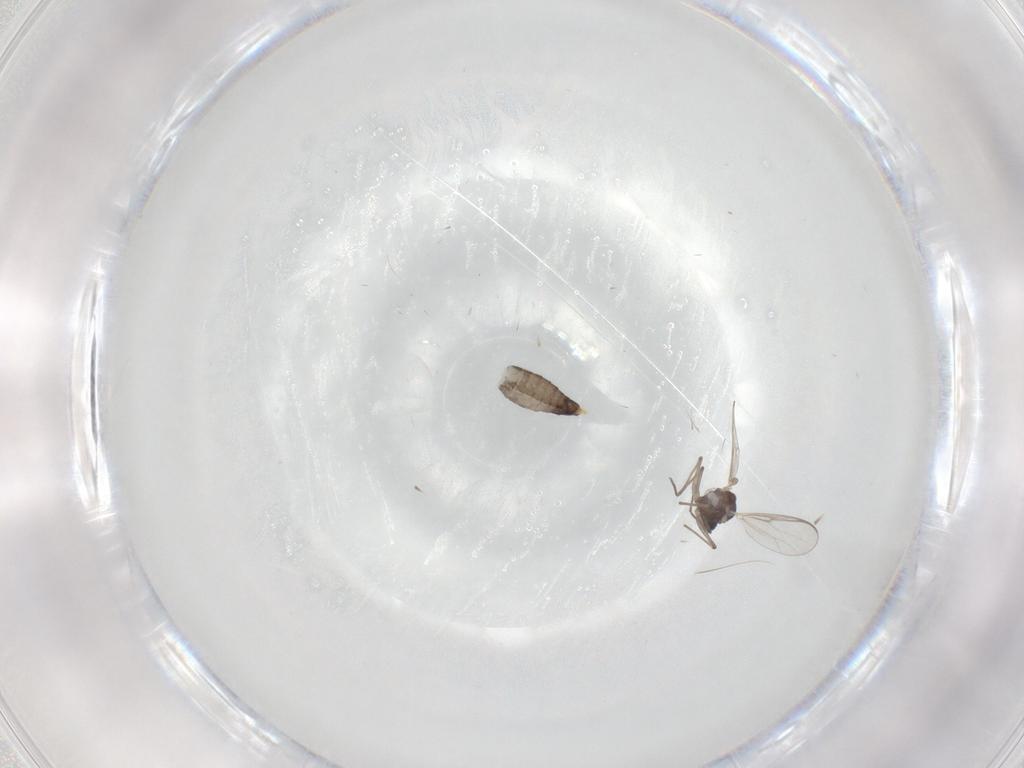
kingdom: Animalia
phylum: Arthropoda
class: Insecta
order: Diptera
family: Chironomidae
